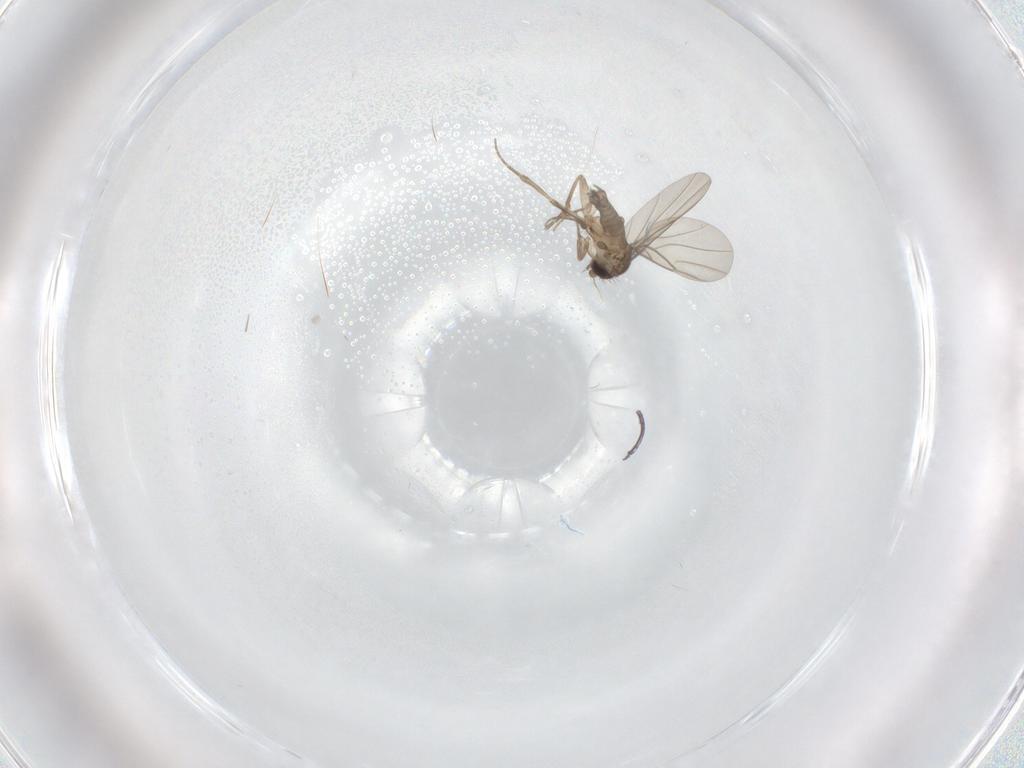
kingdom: Animalia
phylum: Arthropoda
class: Insecta
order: Diptera
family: Phoridae
